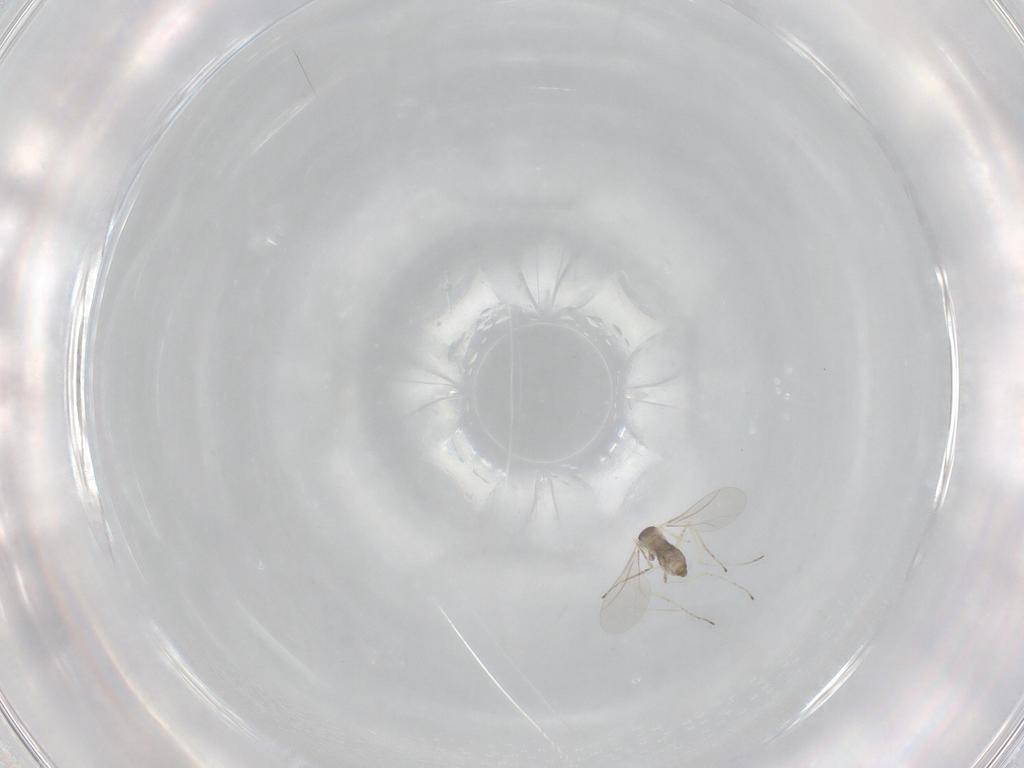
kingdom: Animalia
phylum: Arthropoda
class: Insecta
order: Diptera
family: Cecidomyiidae
